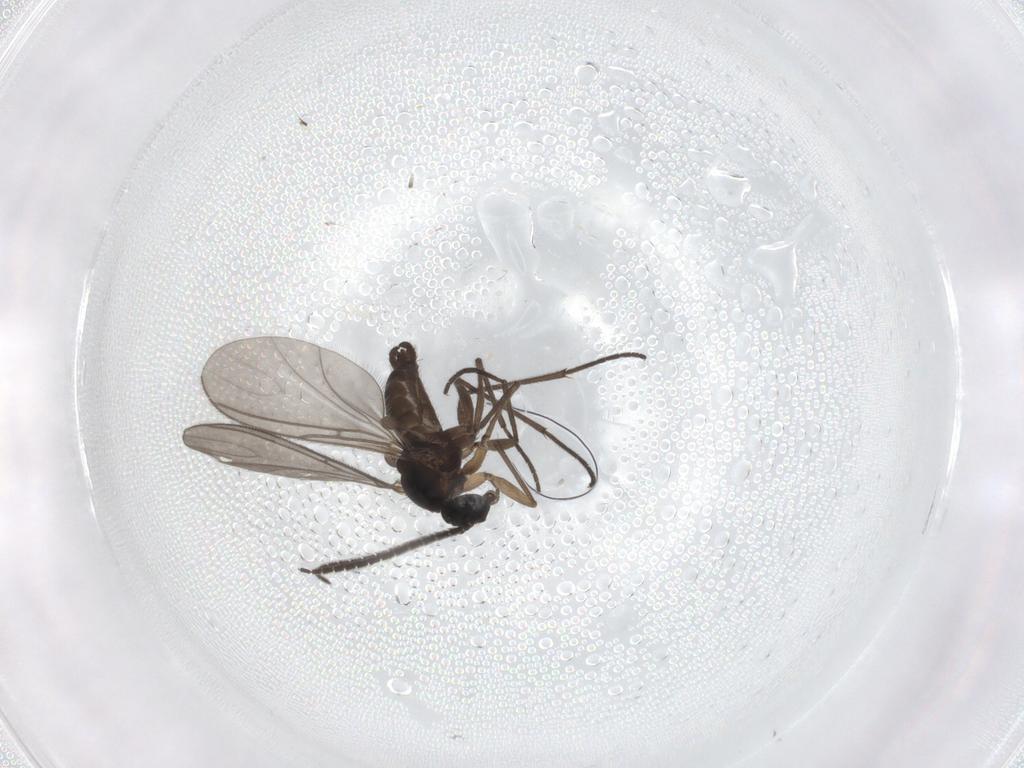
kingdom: Animalia
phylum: Arthropoda
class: Insecta
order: Diptera
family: Sciaridae
